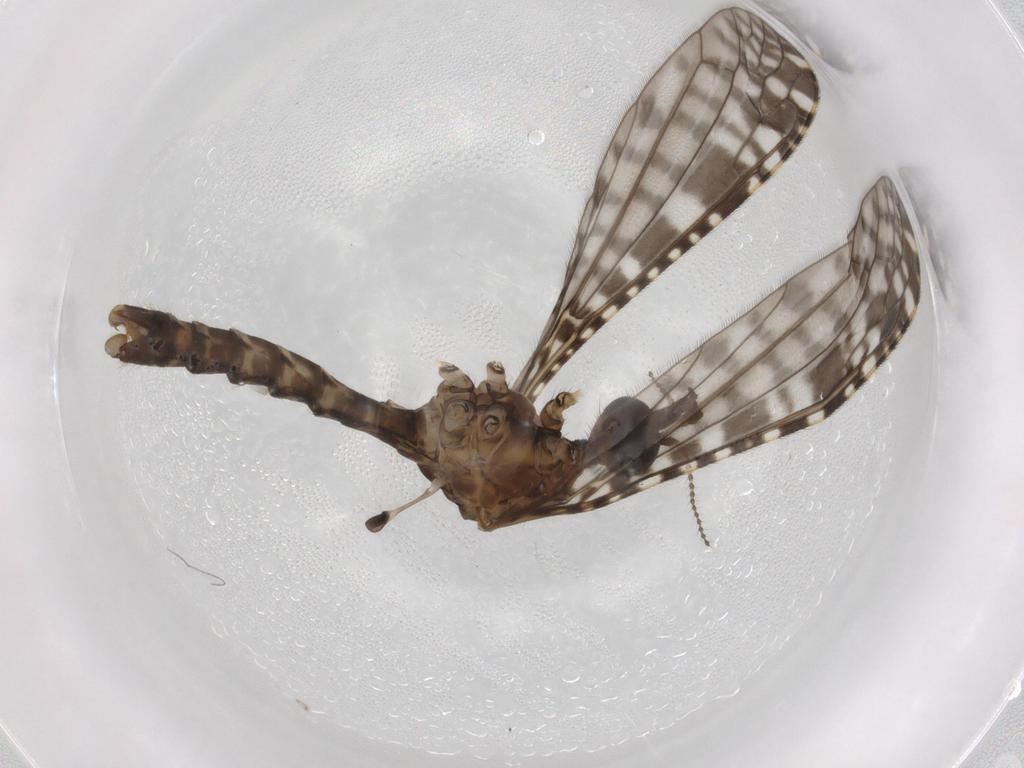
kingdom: Animalia
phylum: Arthropoda
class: Insecta
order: Diptera
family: Drosophilidae
